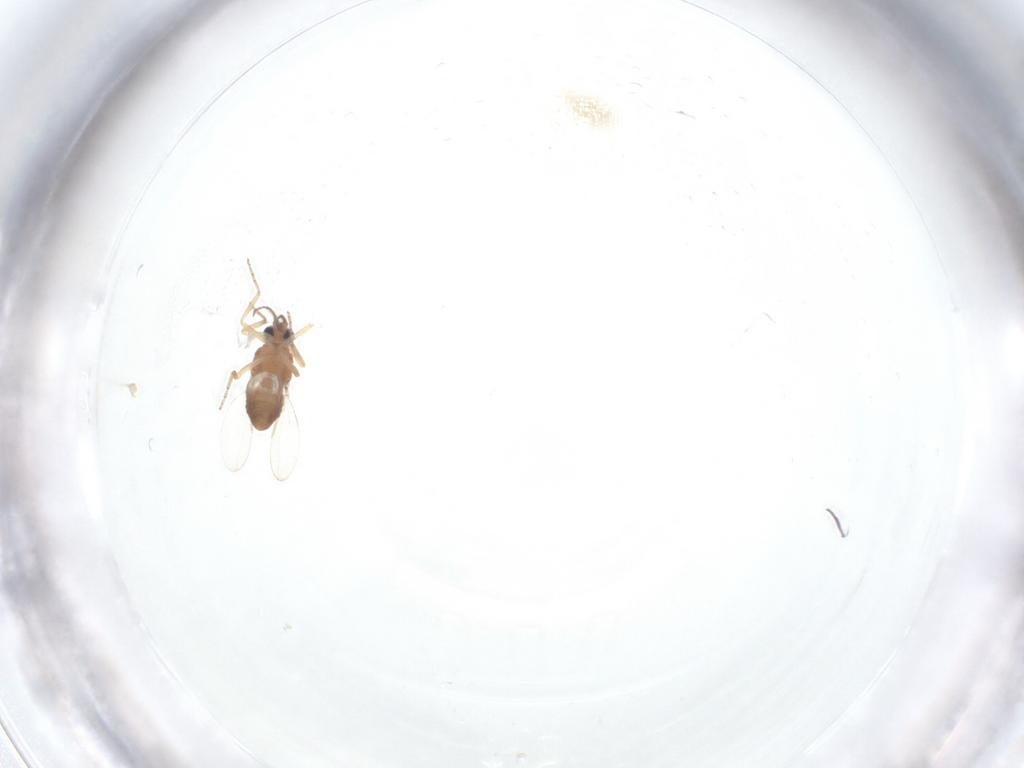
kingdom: Animalia
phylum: Arthropoda
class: Insecta
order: Diptera
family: Ceratopogonidae
